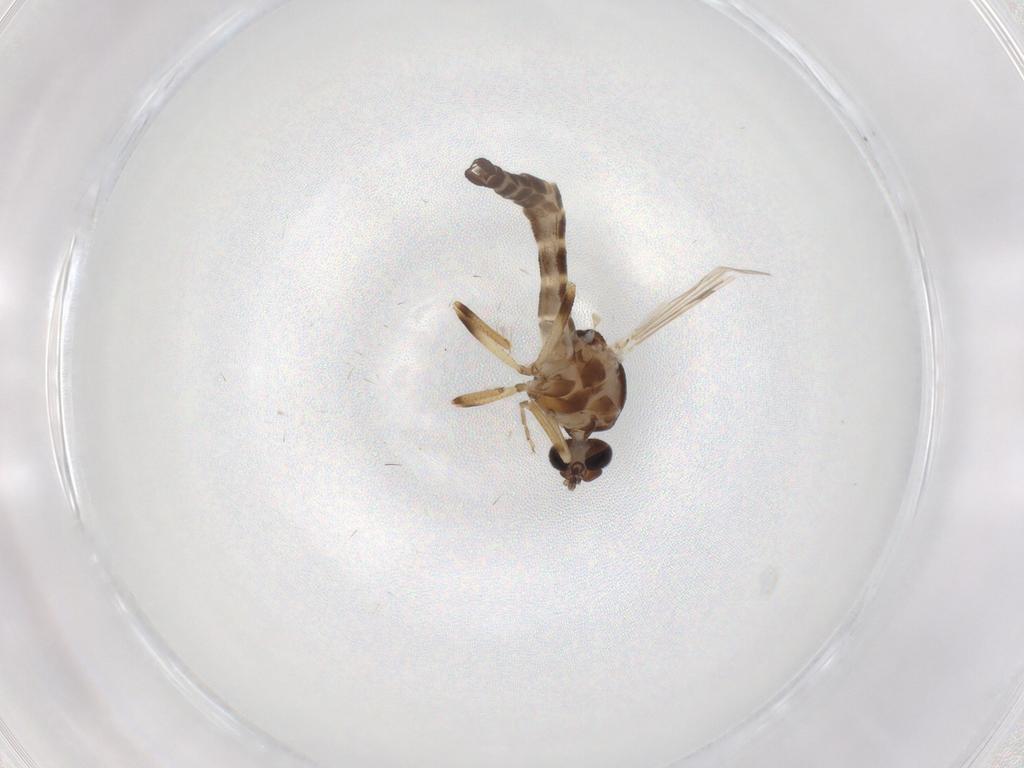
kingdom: Animalia
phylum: Arthropoda
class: Insecta
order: Diptera
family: Ceratopogonidae
